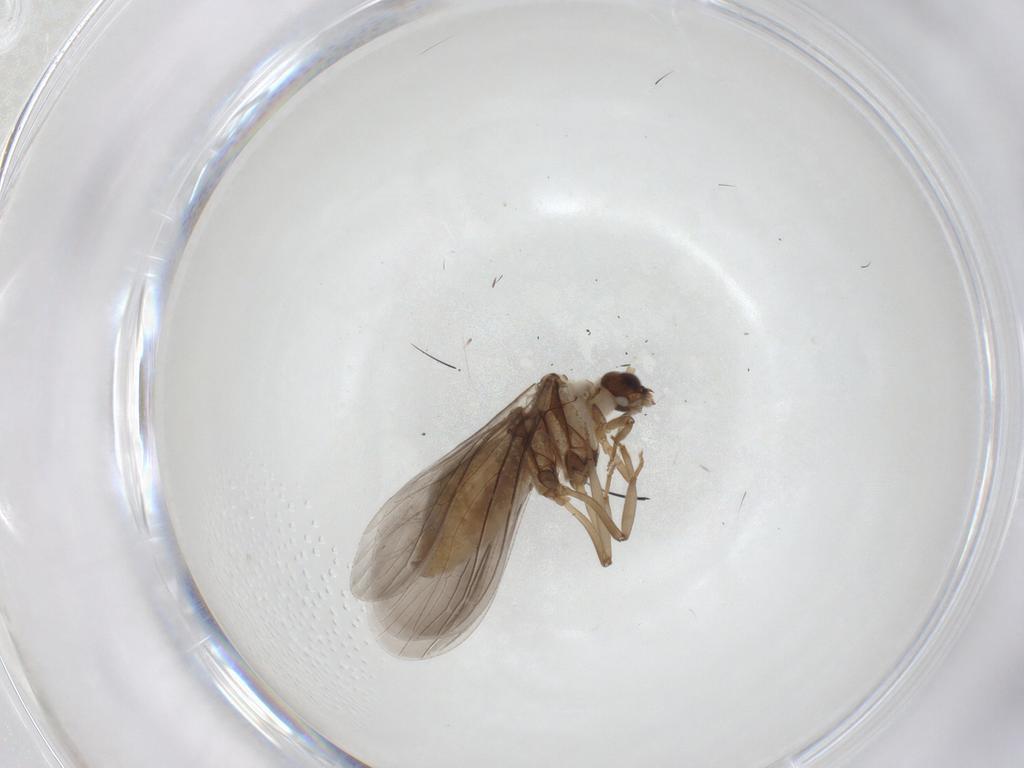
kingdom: Animalia
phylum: Arthropoda
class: Insecta
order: Neuroptera
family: Coniopterygidae
